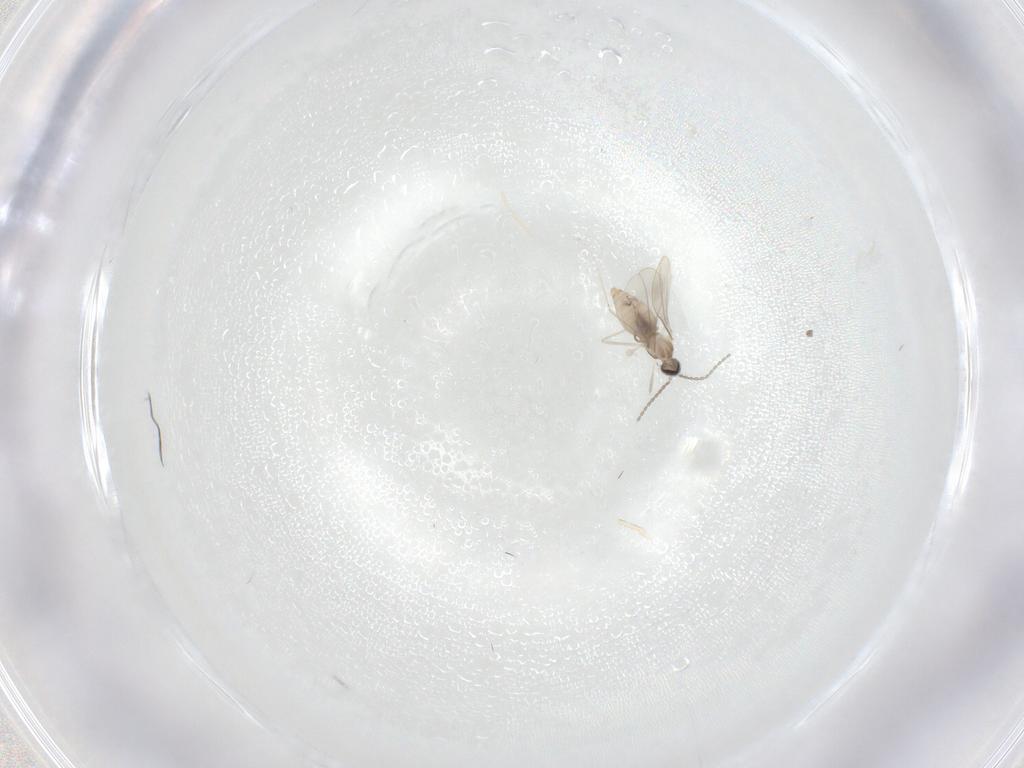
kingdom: Animalia
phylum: Arthropoda
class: Insecta
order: Diptera
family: Cecidomyiidae
